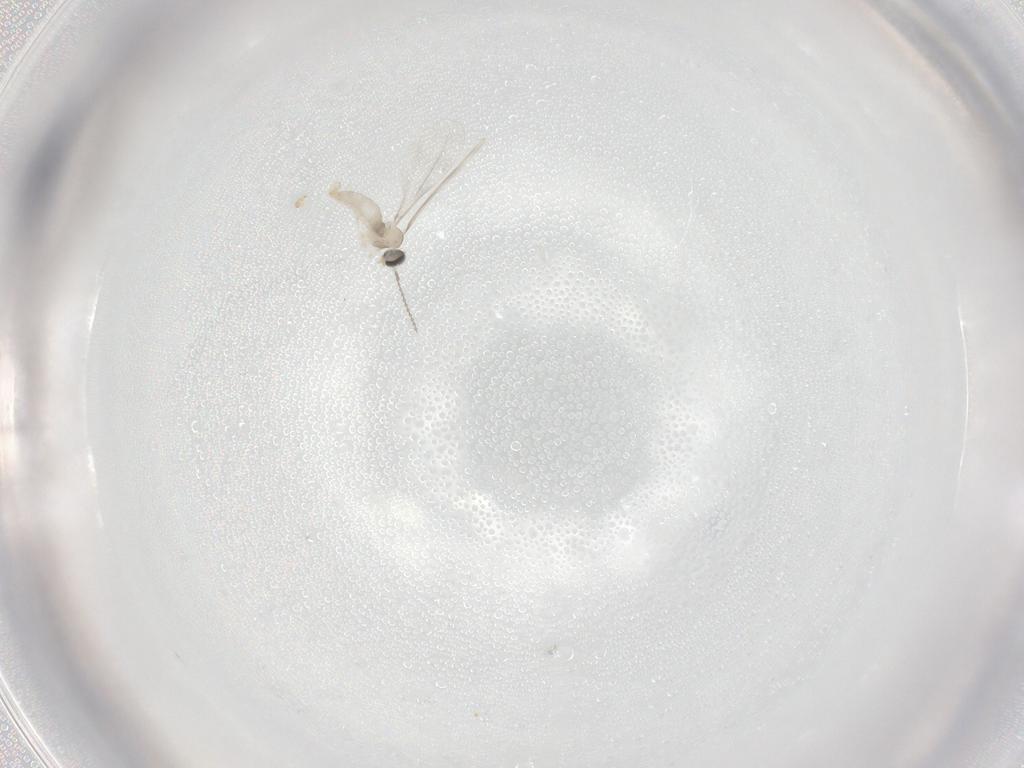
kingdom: Animalia
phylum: Arthropoda
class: Insecta
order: Diptera
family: Cecidomyiidae
